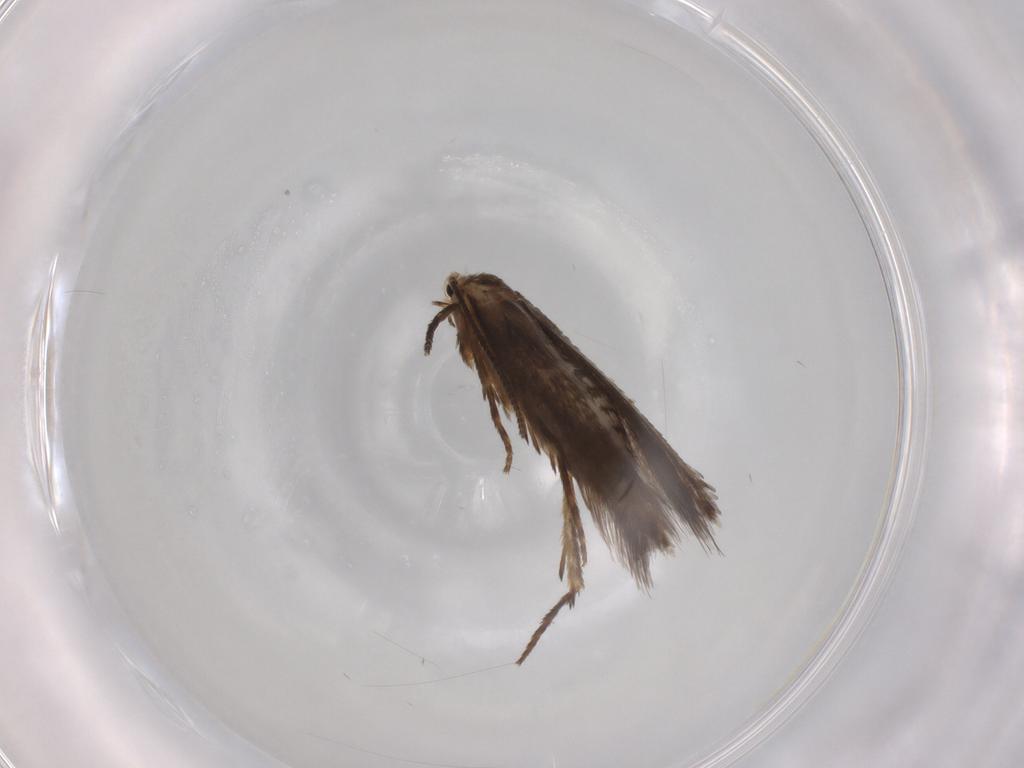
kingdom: Animalia
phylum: Arthropoda
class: Insecta
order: Lepidoptera
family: Nepticulidae
